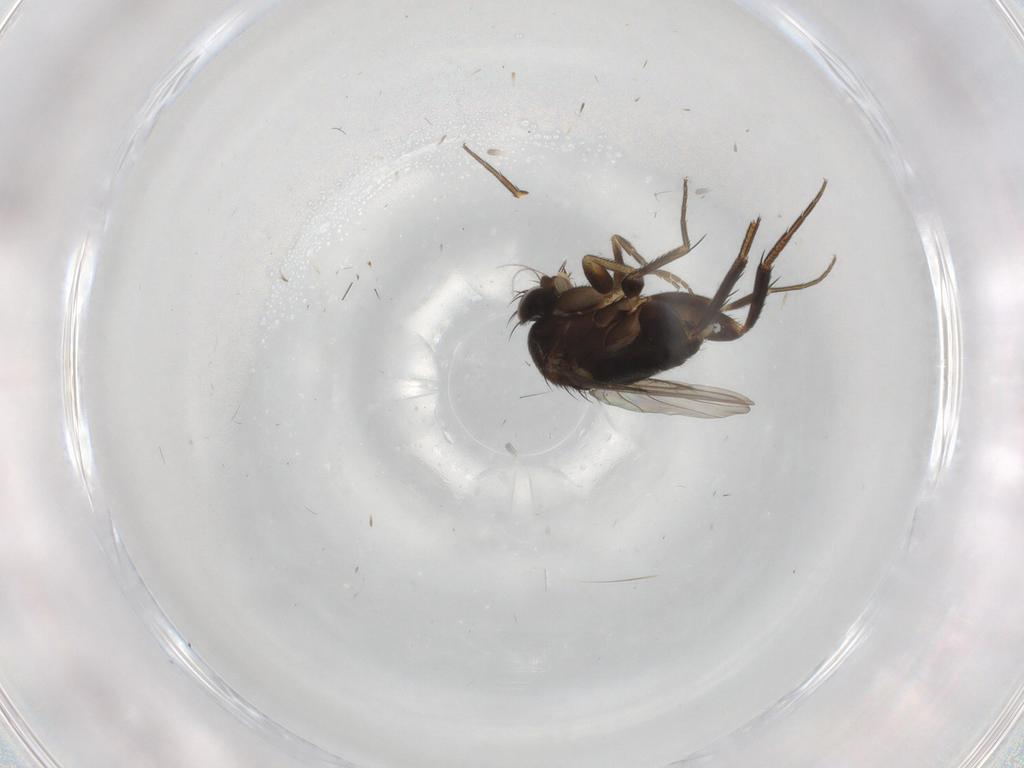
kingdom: Animalia
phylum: Arthropoda
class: Insecta
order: Diptera
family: Phoridae
